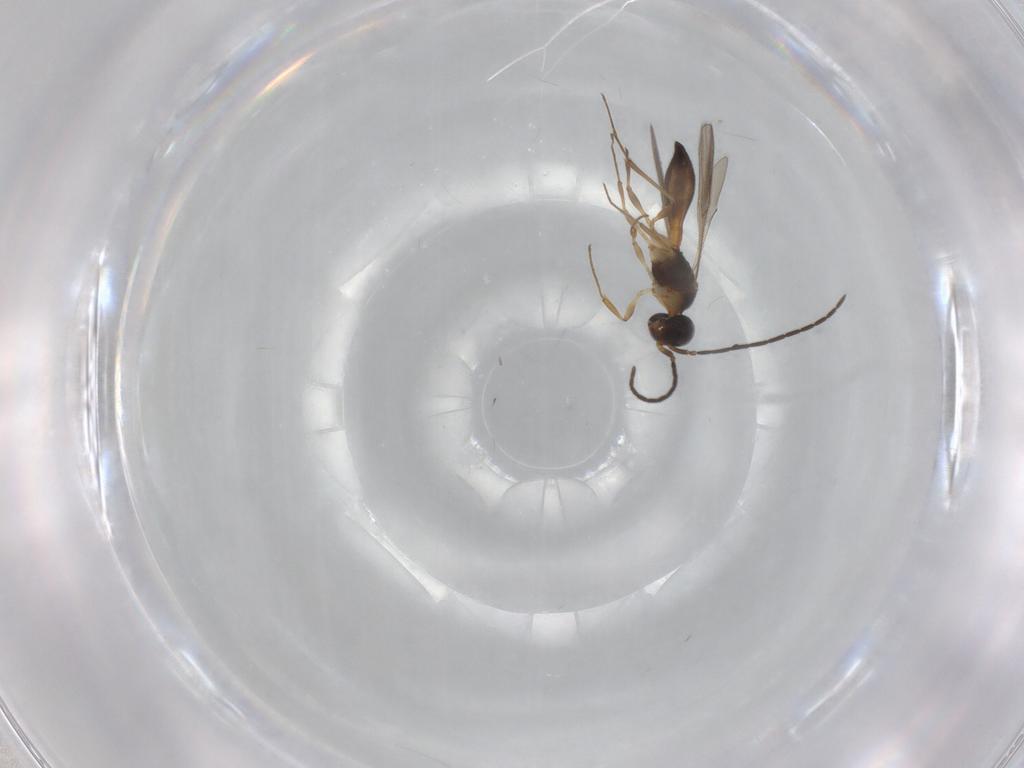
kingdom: Animalia
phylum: Arthropoda
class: Insecta
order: Hymenoptera
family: Scelionidae
